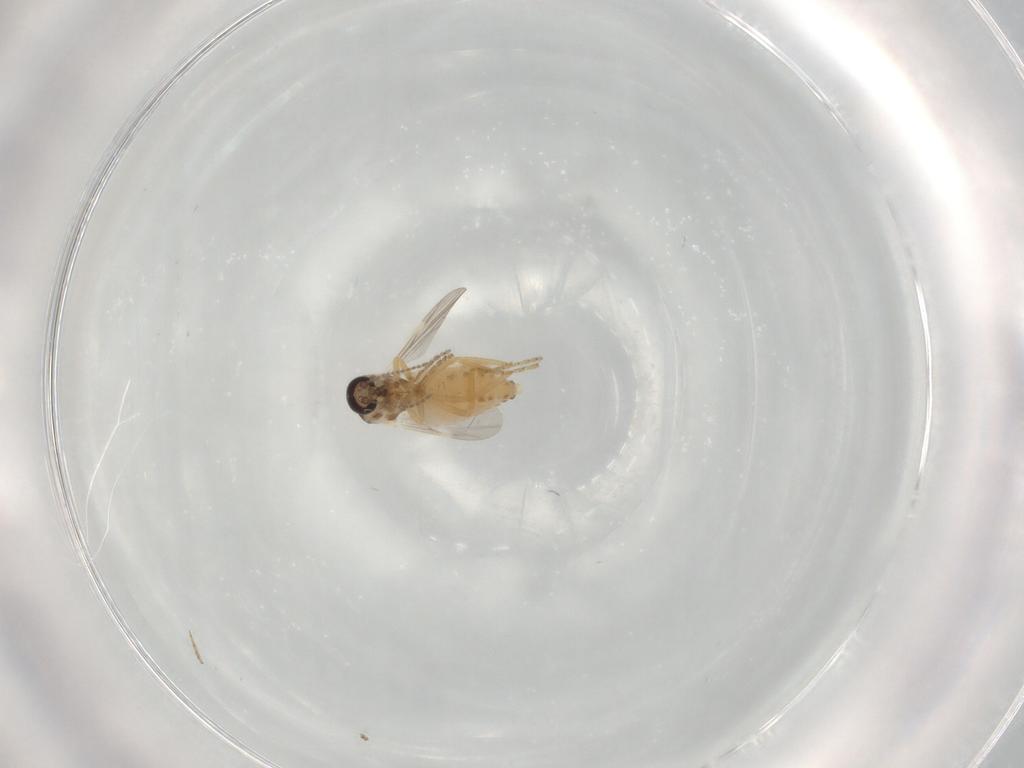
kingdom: Animalia
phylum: Arthropoda
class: Insecta
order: Diptera
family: Ceratopogonidae
